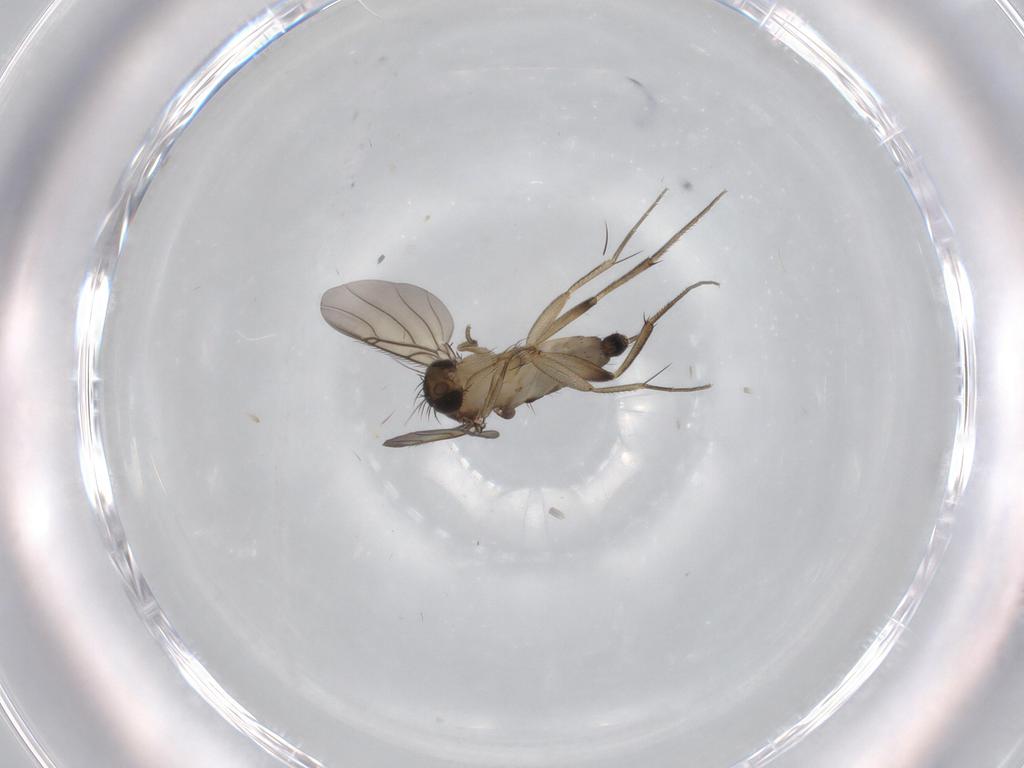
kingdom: Animalia
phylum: Arthropoda
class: Insecta
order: Diptera
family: Phoridae
